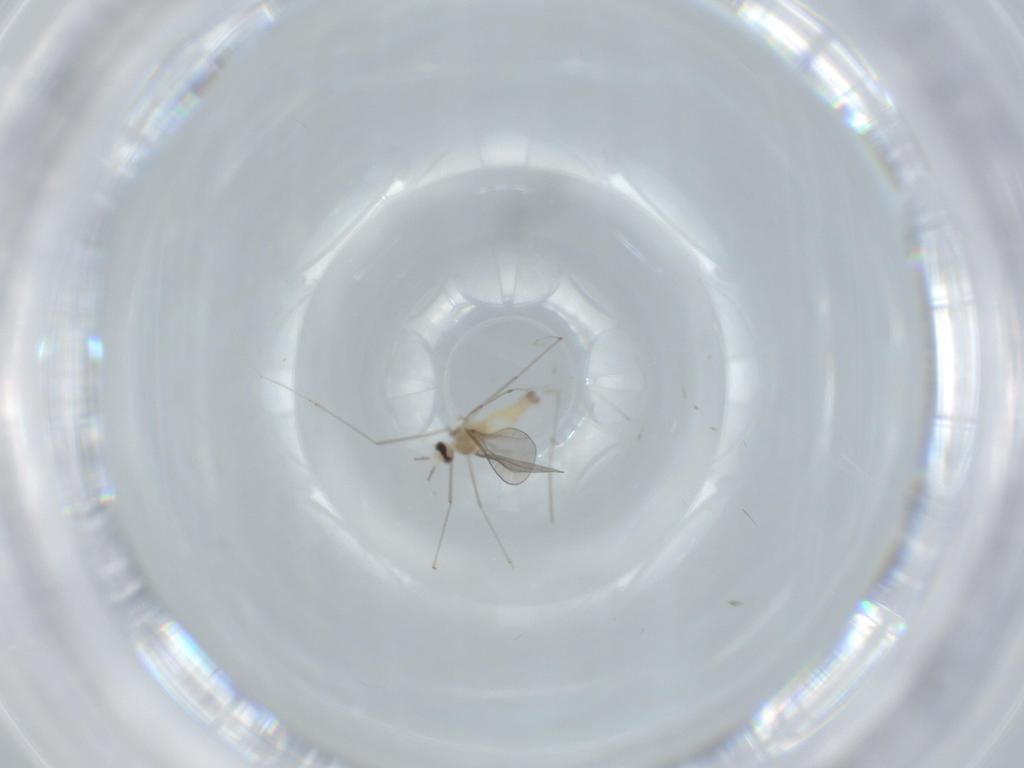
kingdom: Animalia
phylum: Arthropoda
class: Insecta
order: Diptera
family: Cecidomyiidae
